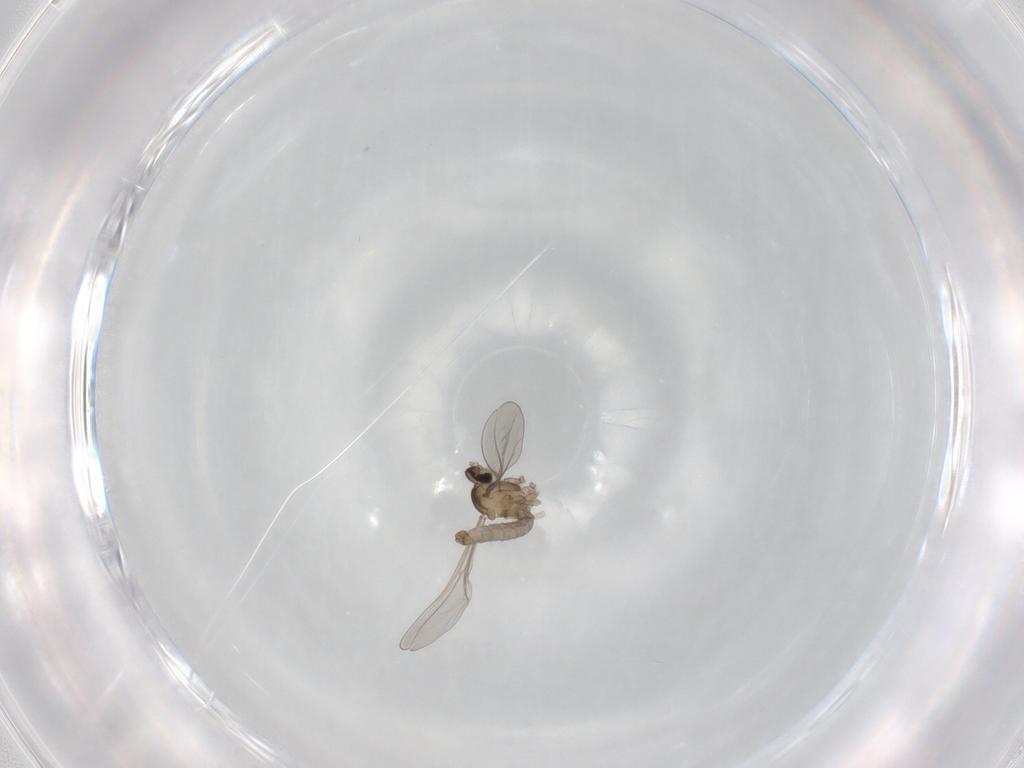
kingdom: Animalia
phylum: Arthropoda
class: Insecta
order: Diptera
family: Cecidomyiidae
